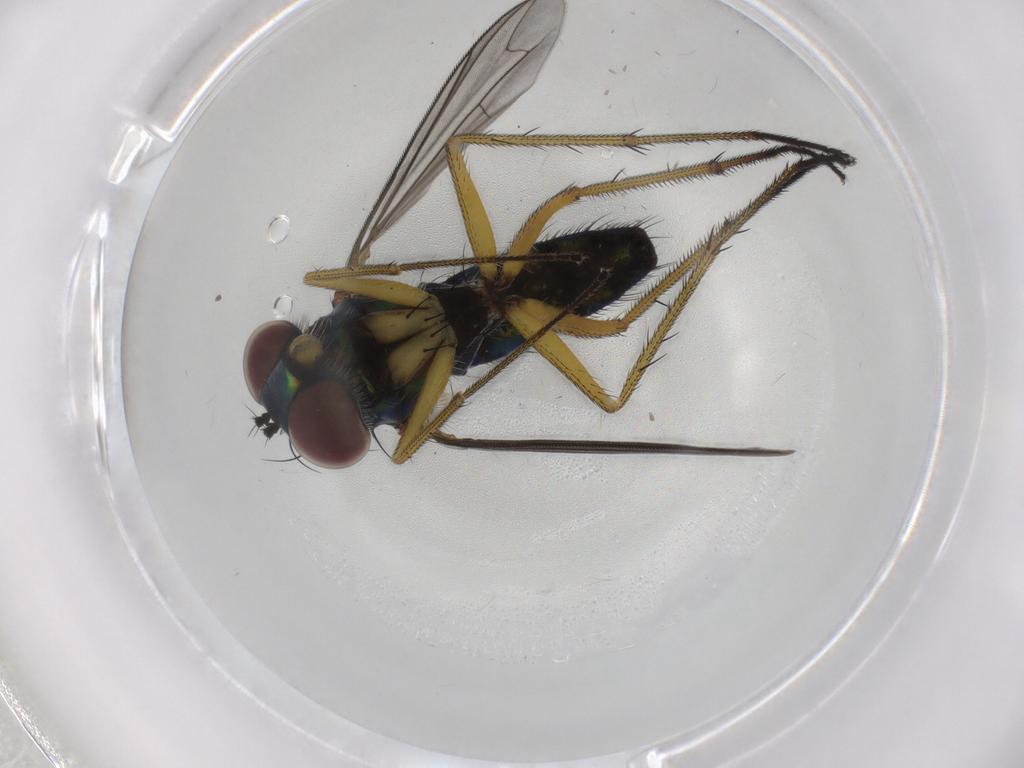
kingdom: Animalia
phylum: Arthropoda
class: Insecta
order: Diptera
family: Dolichopodidae
